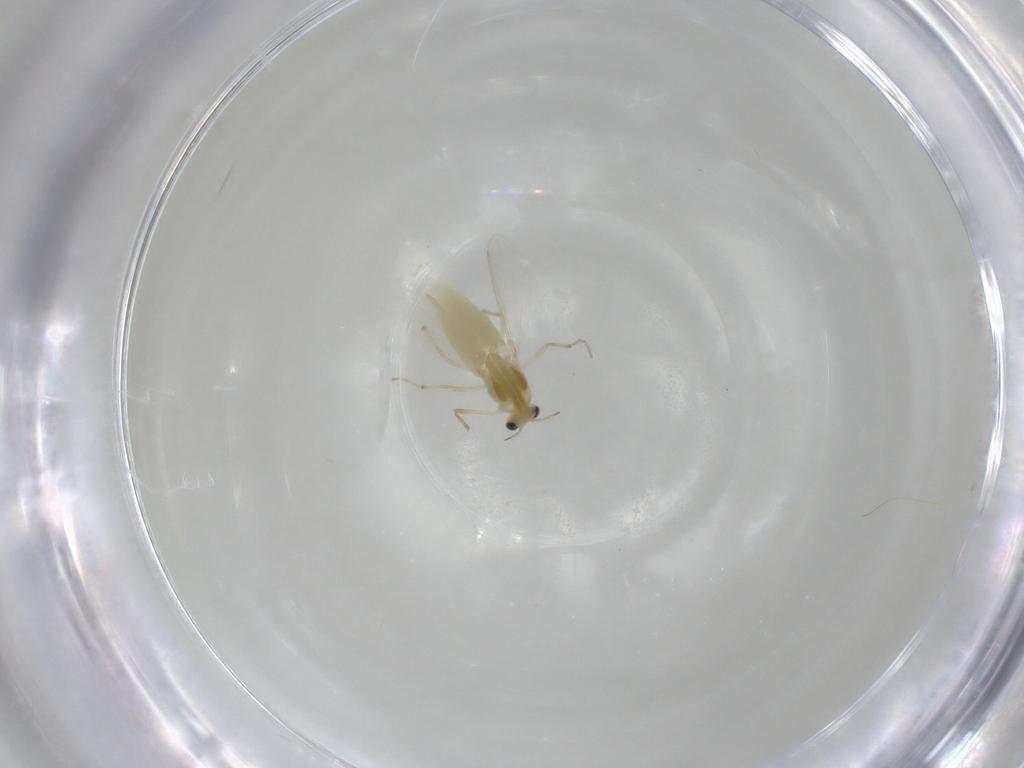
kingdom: Animalia
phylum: Arthropoda
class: Insecta
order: Diptera
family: Chironomidae
